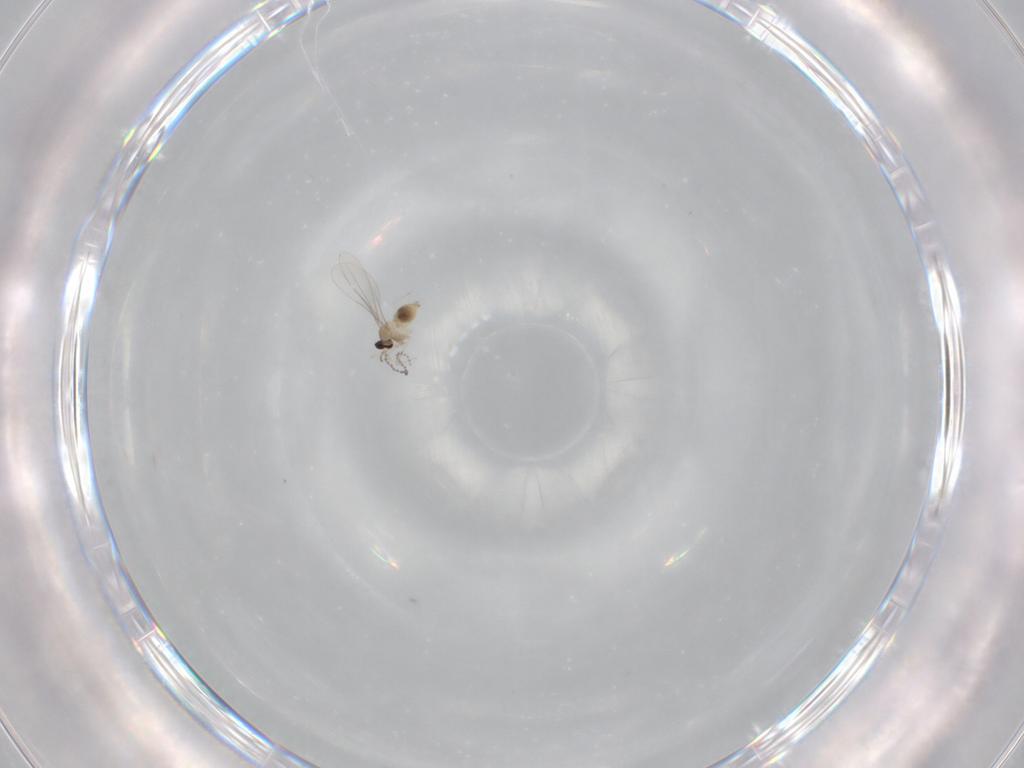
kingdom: Animalia
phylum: Arthropoda
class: Insecta
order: Diptera
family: Cecidomyiidae
